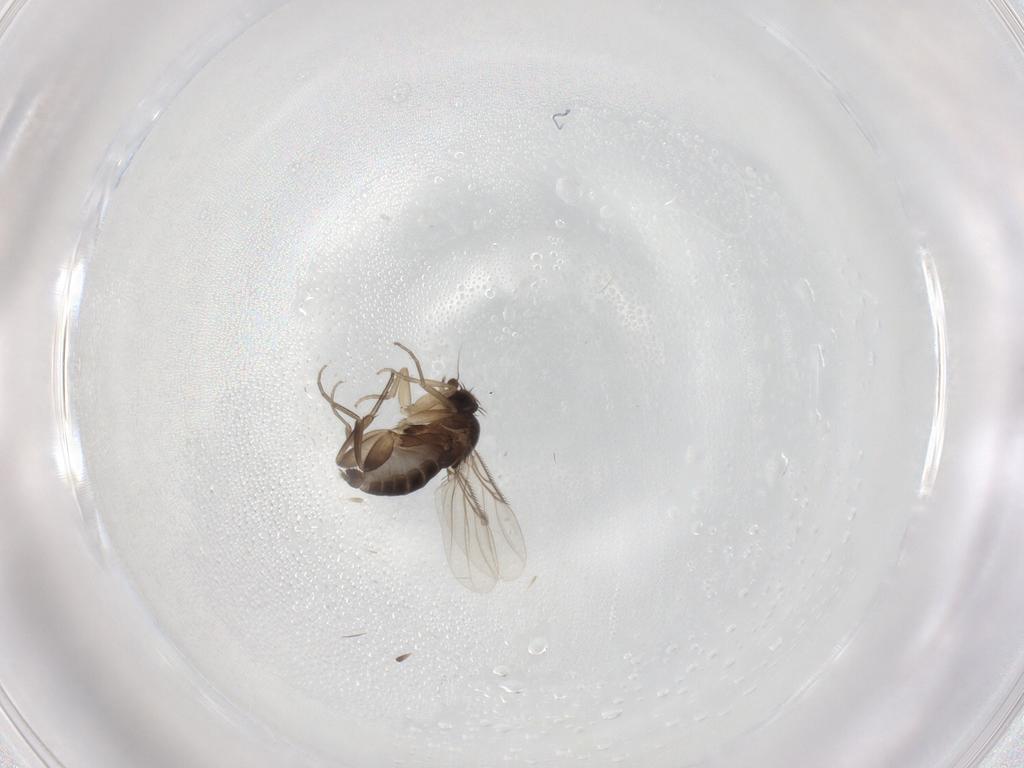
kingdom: Animalia
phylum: Arthropoda
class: Insecta
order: Diptera
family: Phoridae
